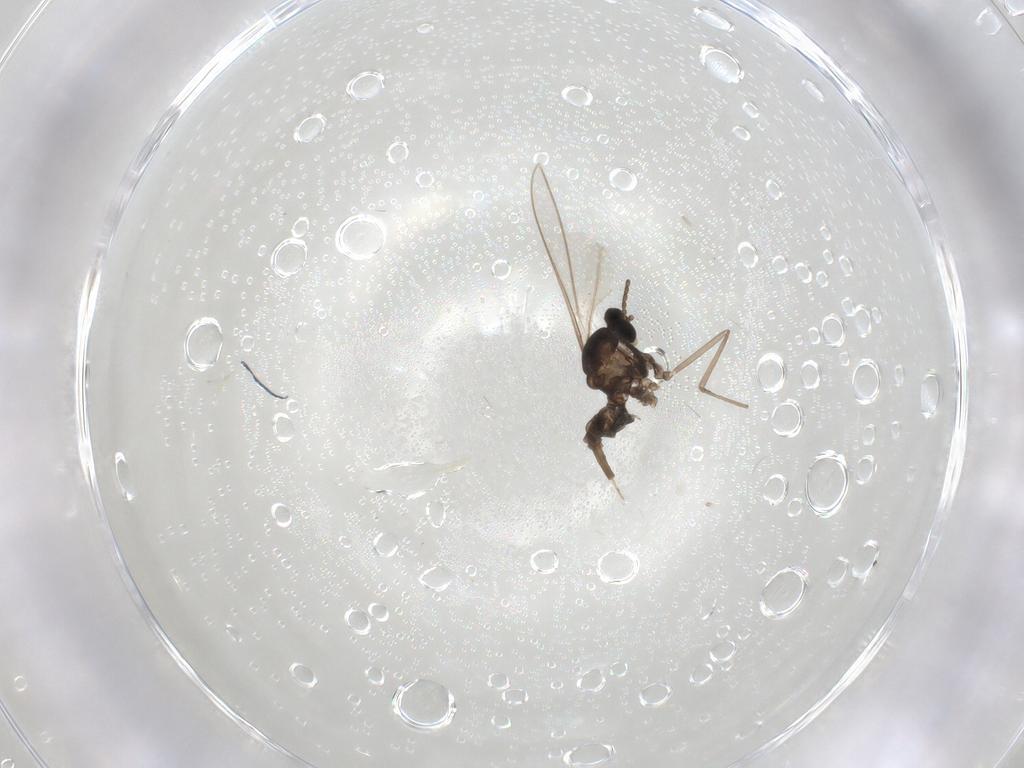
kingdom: Animalia
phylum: Arthropoda
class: Insecta
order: Diptera
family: Cecidomyiidae
